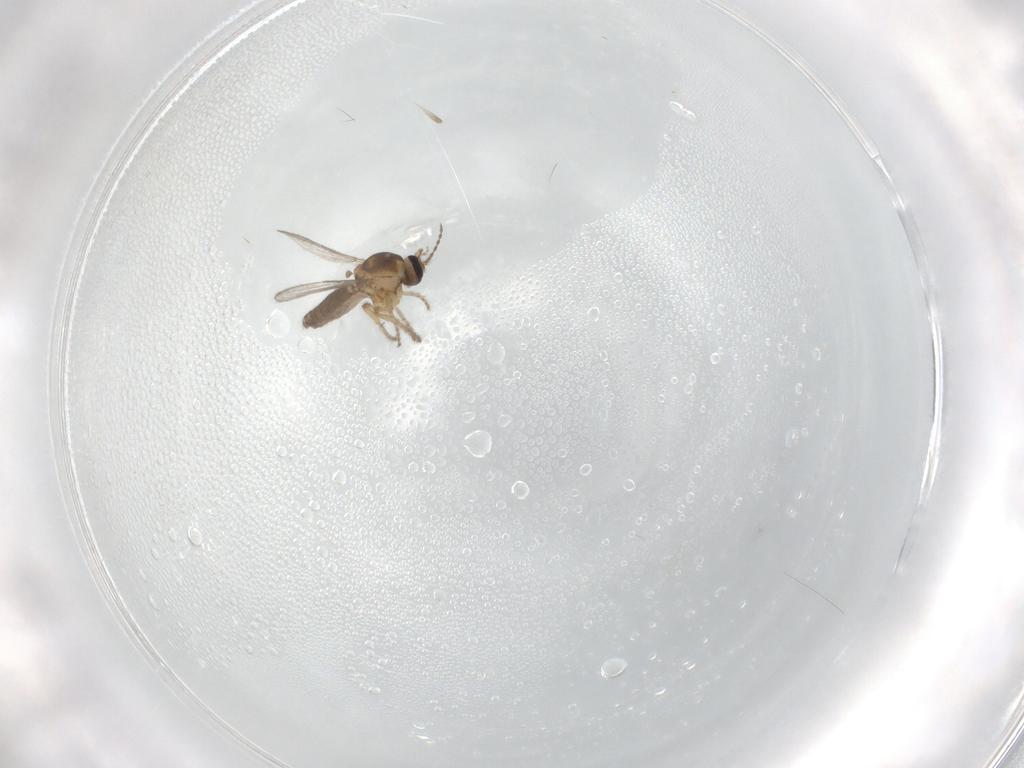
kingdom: Animalia
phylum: Arthropoda
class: Insecta
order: Diptera
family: Ceratopogonidae
